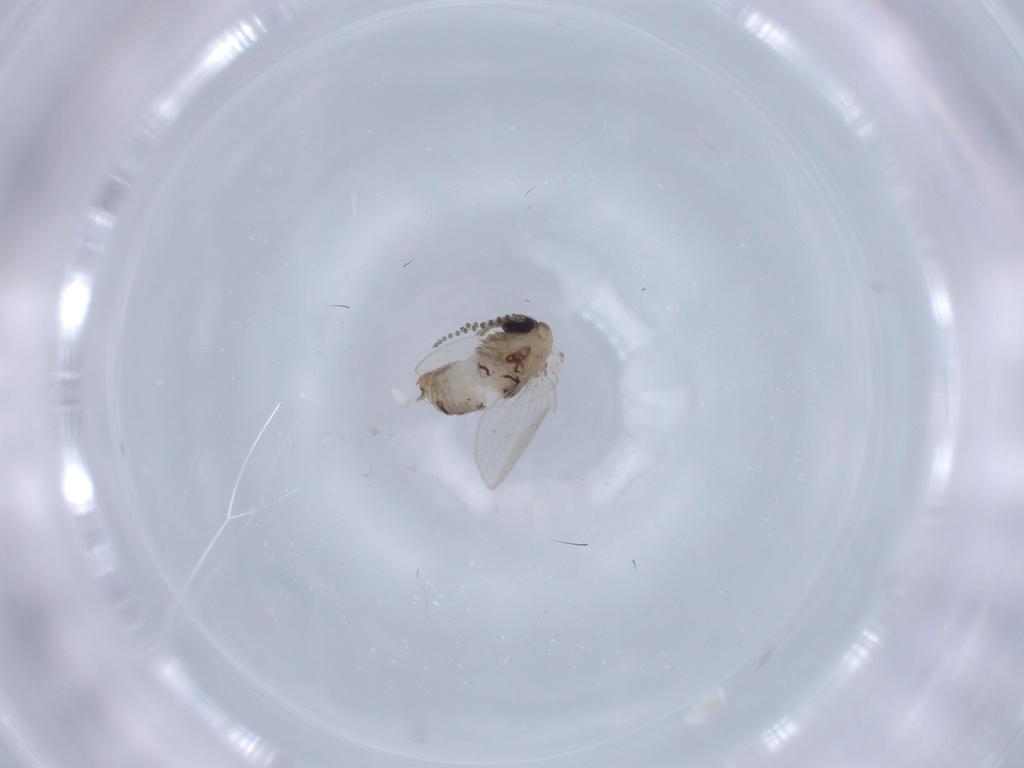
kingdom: Animalia
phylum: Arthropoda
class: Insecta
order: Diptera
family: Psychodidae
